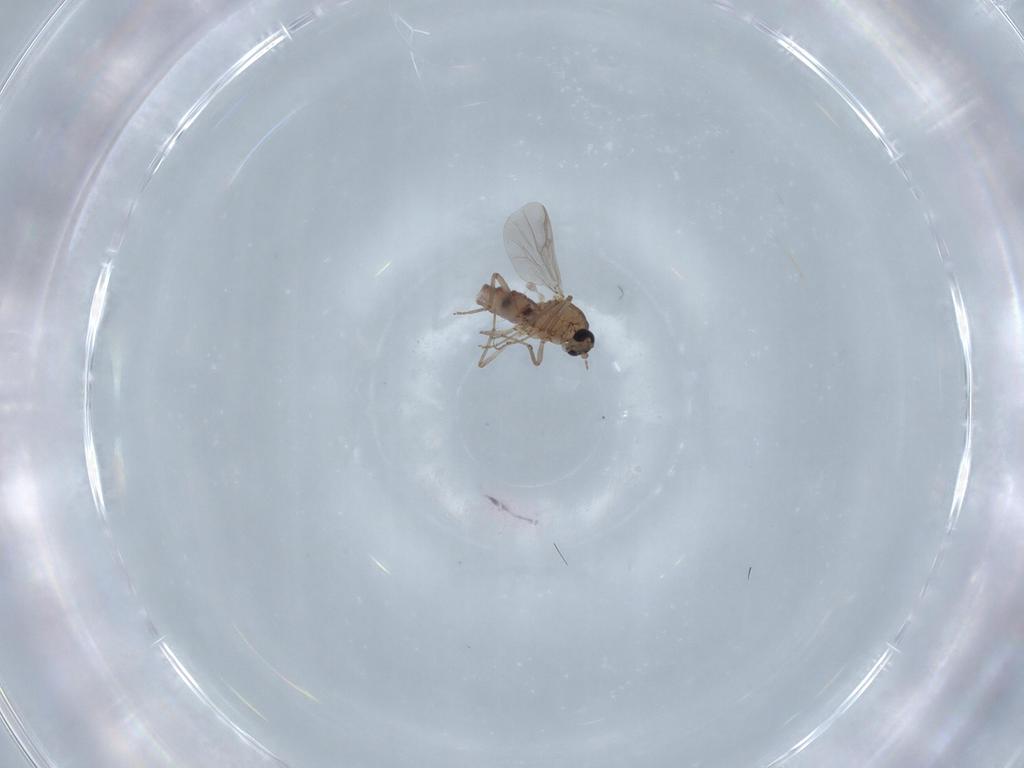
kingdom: Animalia
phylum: Arthropoda
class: Insecta
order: Diptera
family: Ceratopogonidae
